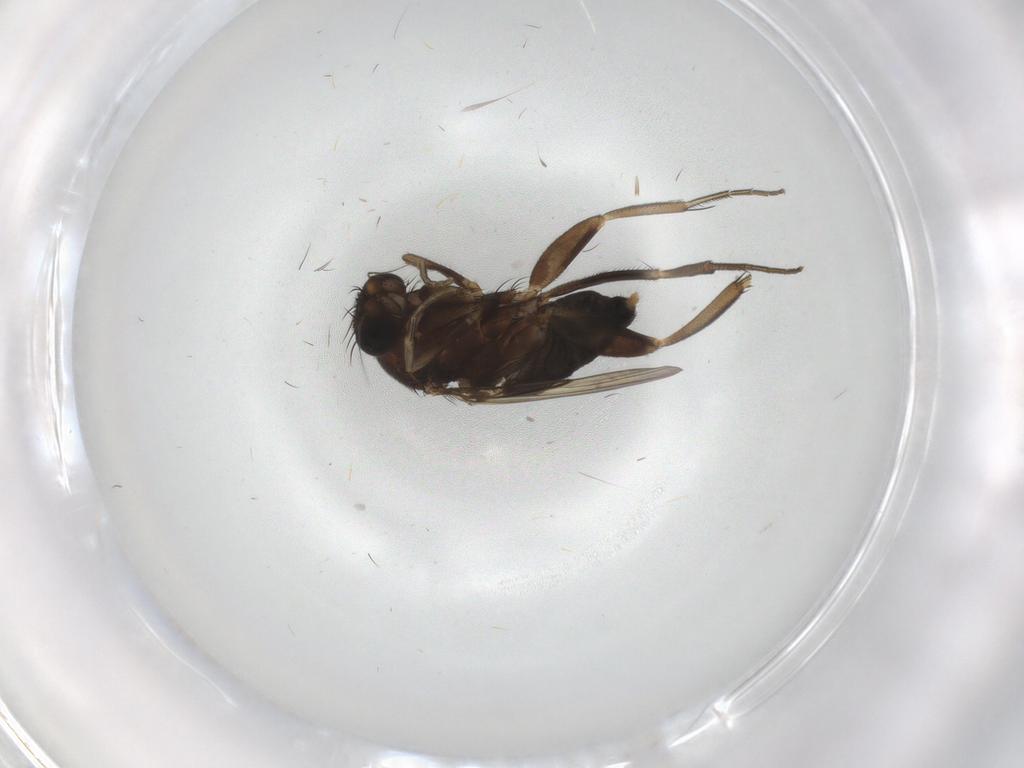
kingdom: Animalia
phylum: Arthropoda
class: Insecta
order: Diptera
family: Phoridae
